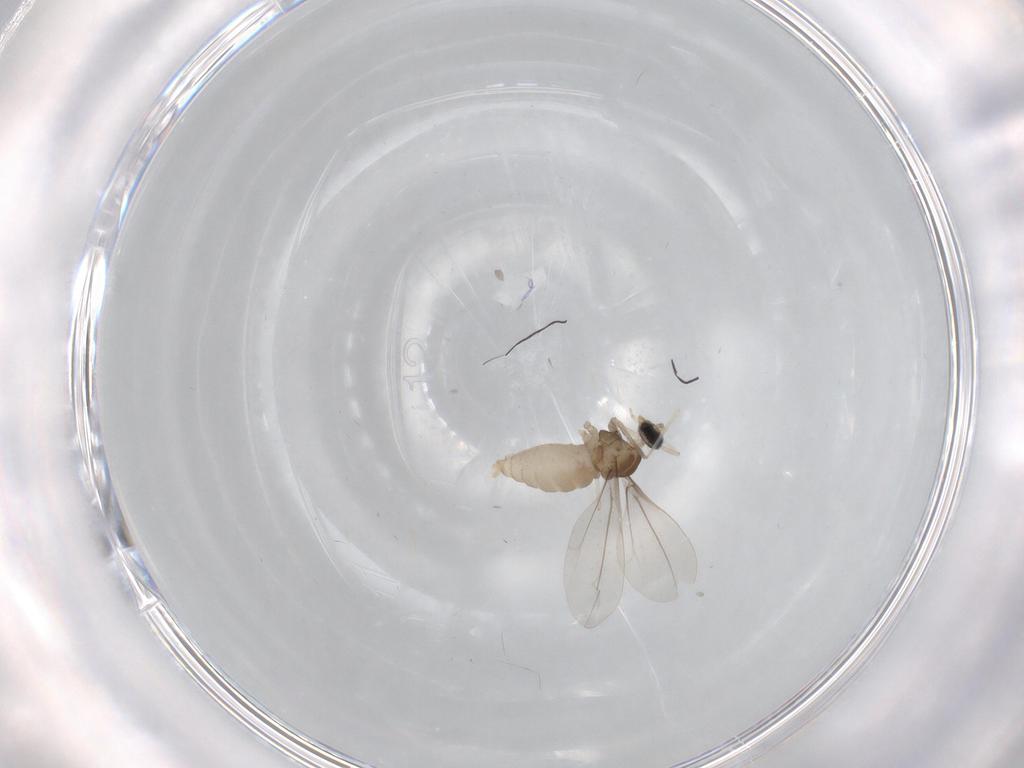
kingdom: Animalia
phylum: Arthropoda
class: Insecta
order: Diptera
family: Cecidomyiidae
